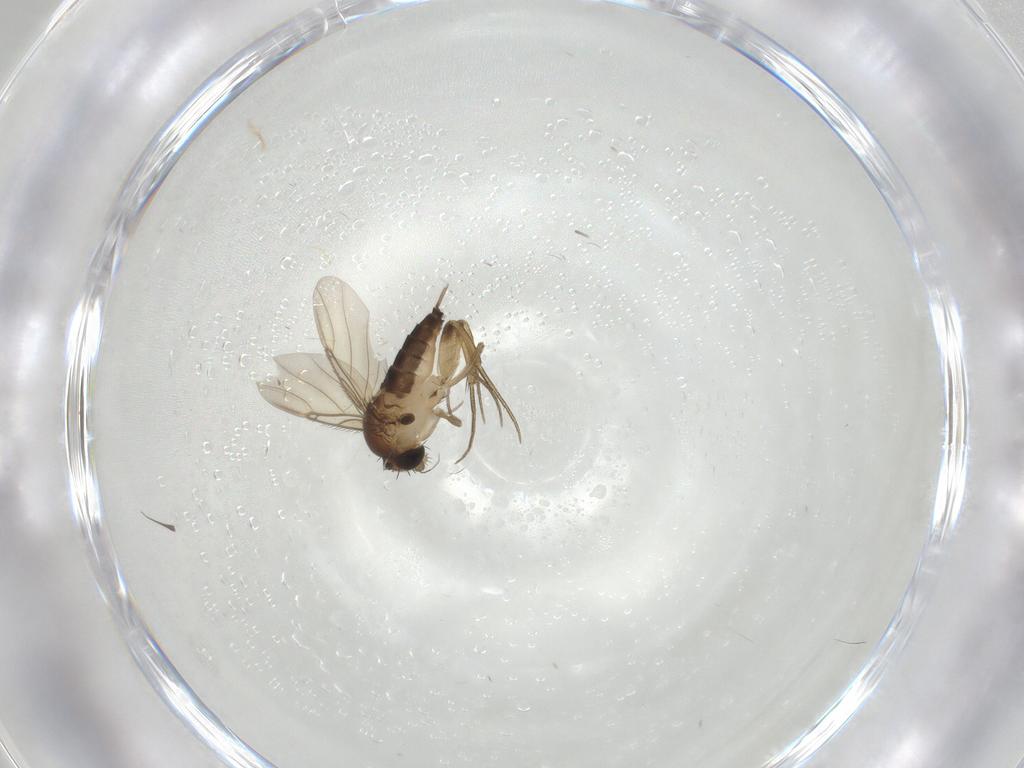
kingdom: Animalia
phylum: Arthropoda
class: Insecta
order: Diptera
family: Phoridae
